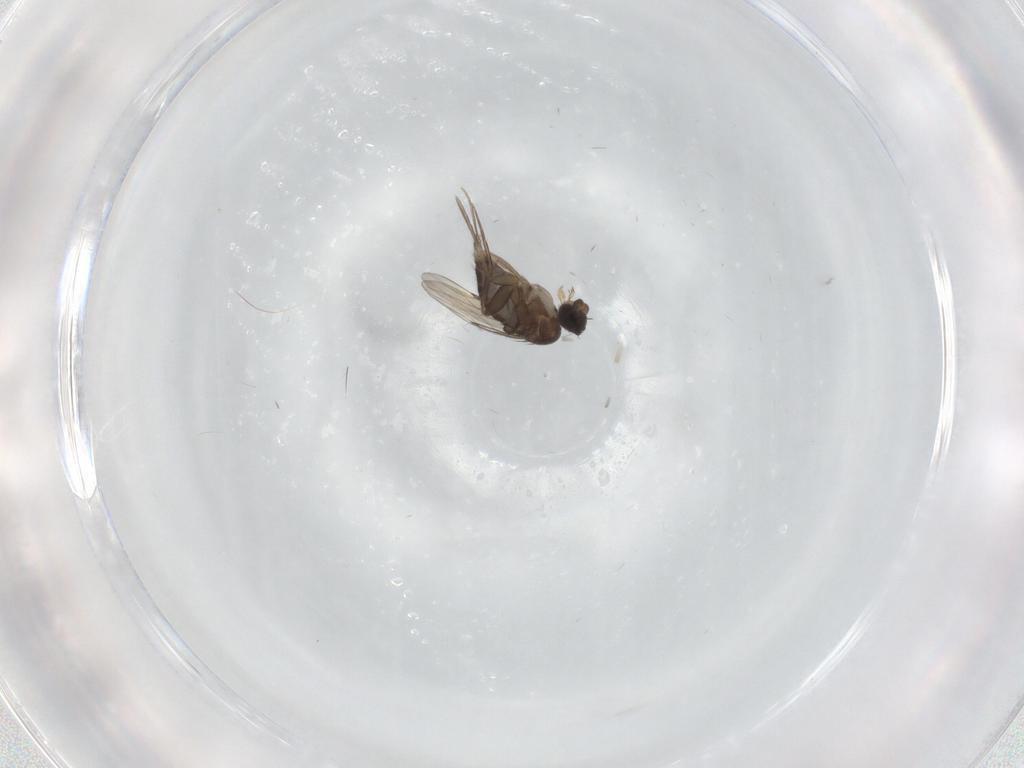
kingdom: Animalia
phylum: Arthropoda
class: Insecta
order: Diptera
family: Phoridae
